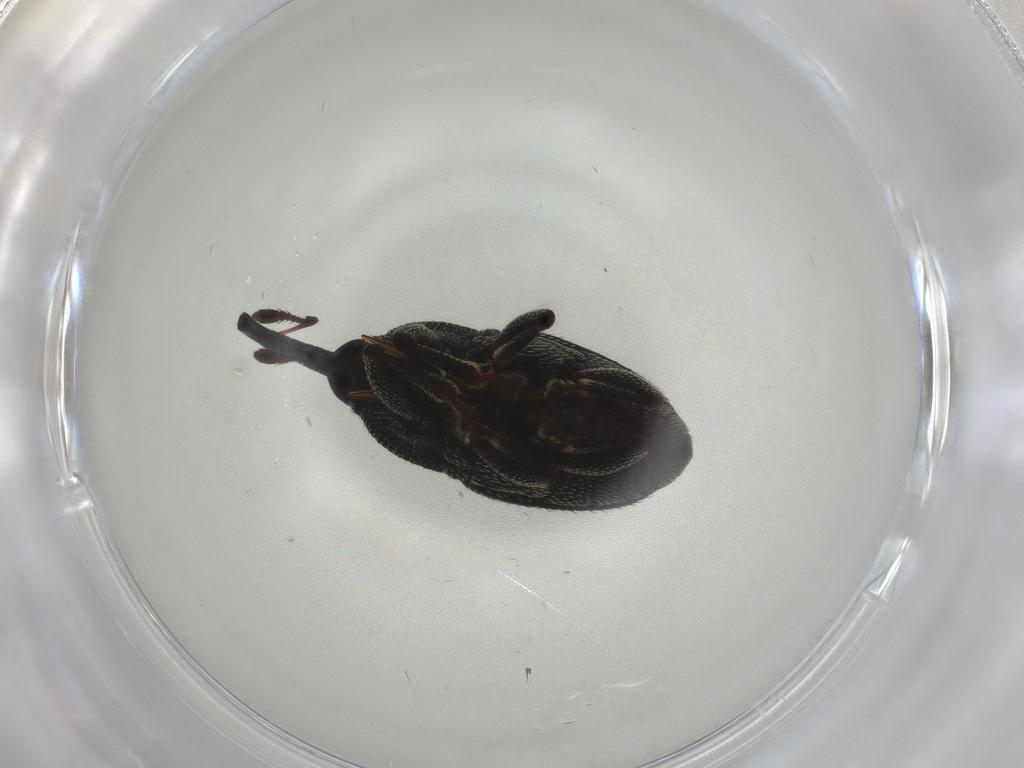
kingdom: Animalia
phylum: Arthropoda
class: Insecta
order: Coleoptera
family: Curculionidae
